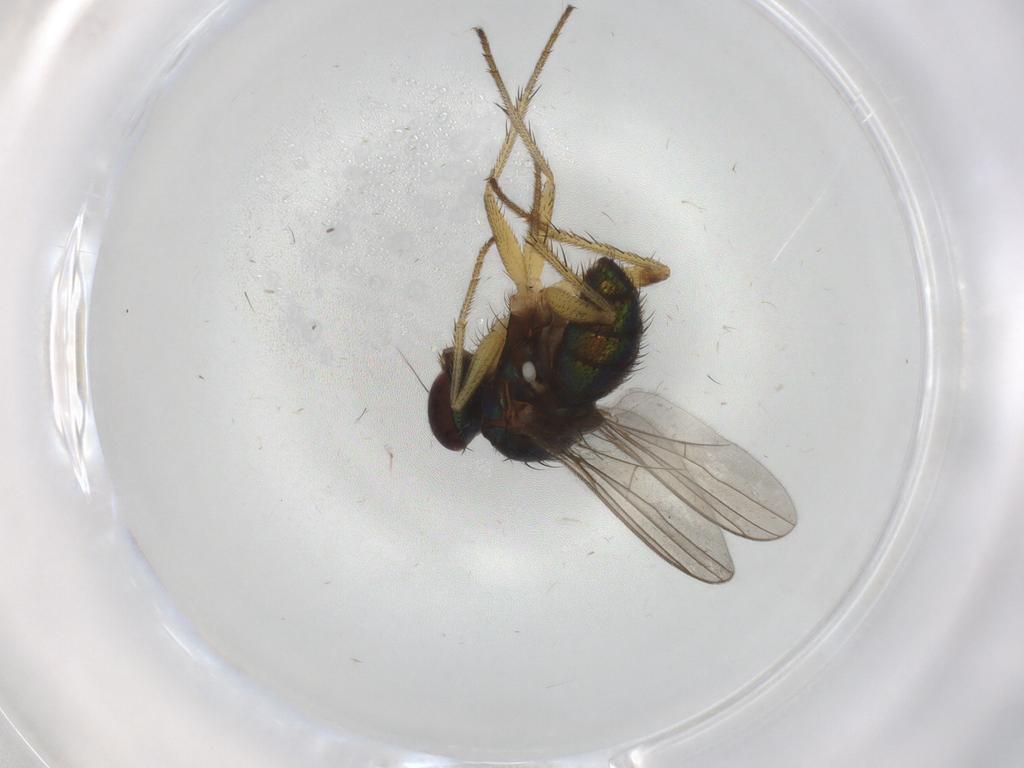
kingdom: Animalia
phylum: Arthropoda
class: Insecta
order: Diptera
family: Dolichopodidae
